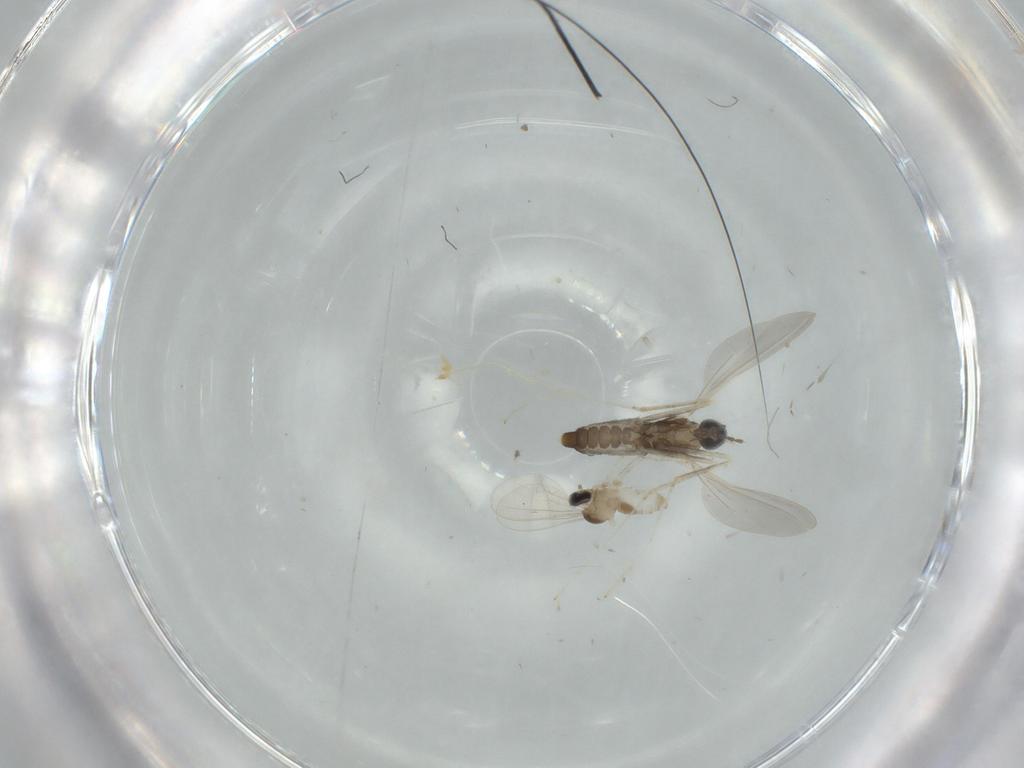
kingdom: Animalia
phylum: Arthropoda
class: Insecta
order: Diptera
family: Cecidomyiidae
